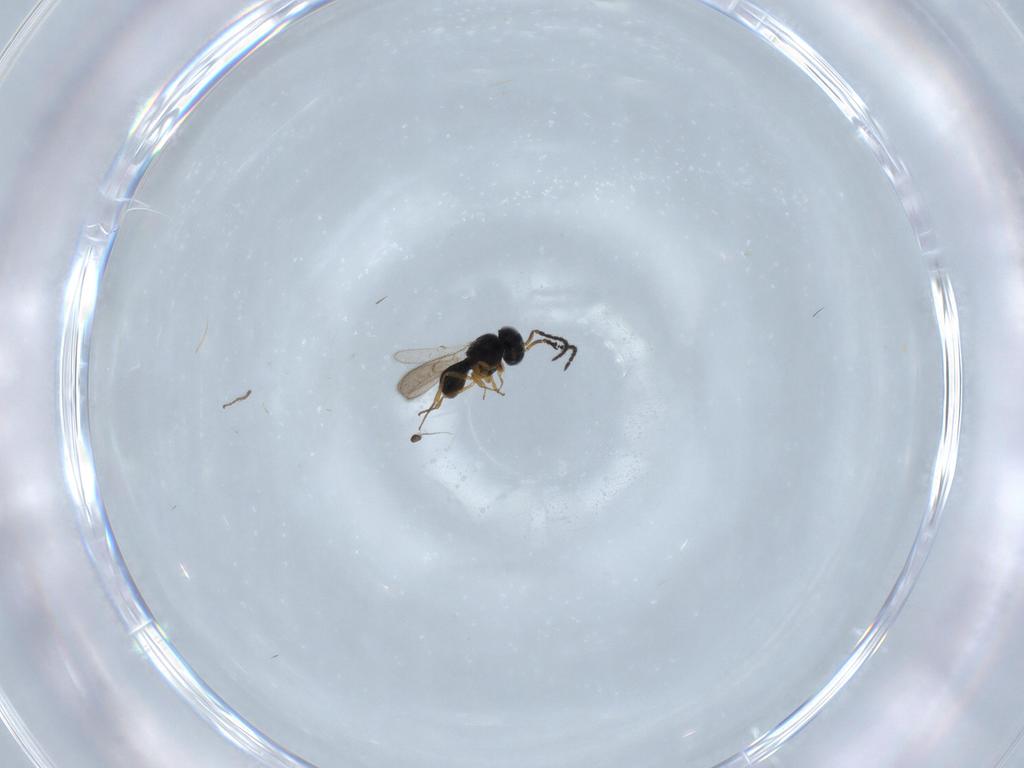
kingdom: Animalia
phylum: Arthropoda
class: Insecta
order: Hymenoptera
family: Scelionidae
